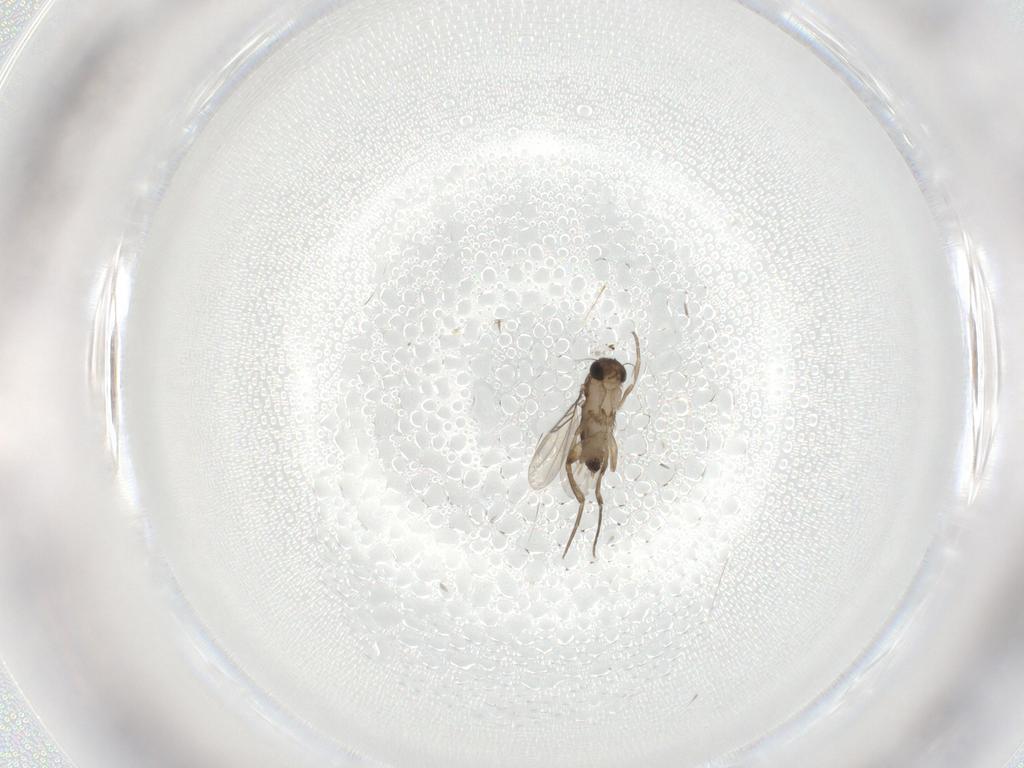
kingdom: Animalia
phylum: Arthropoda
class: Insecta
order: Diptera
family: Phoridae
